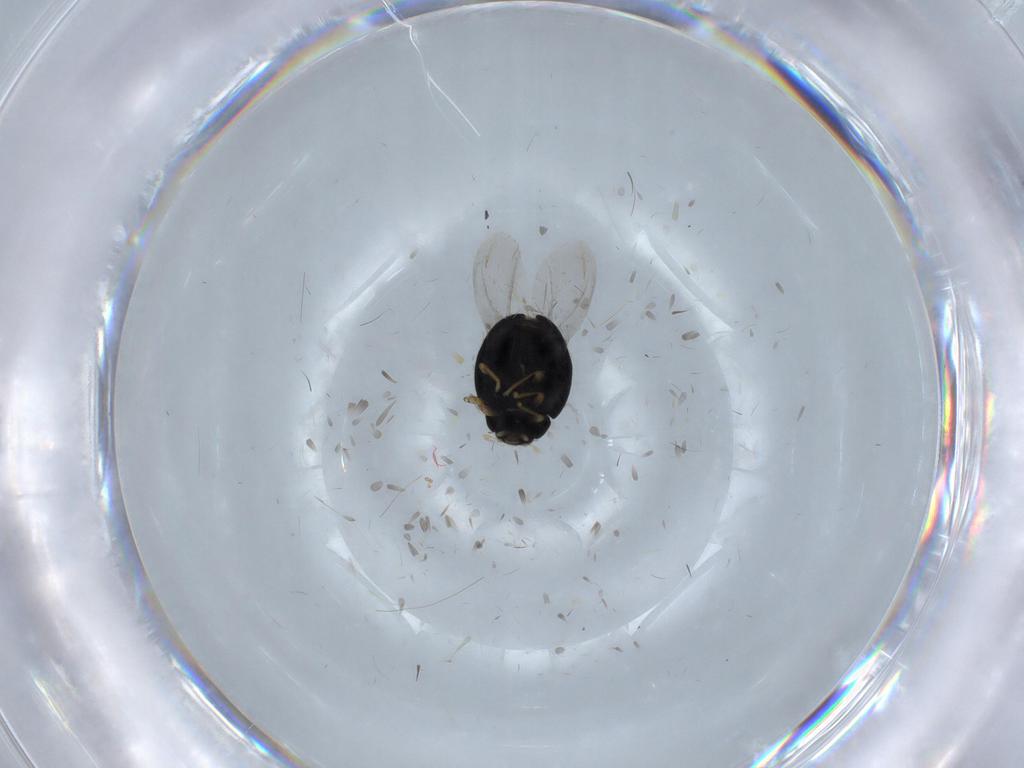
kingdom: Animalia
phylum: Arthropoda
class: Insecta
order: Coleoptera
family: Coccinellidae
